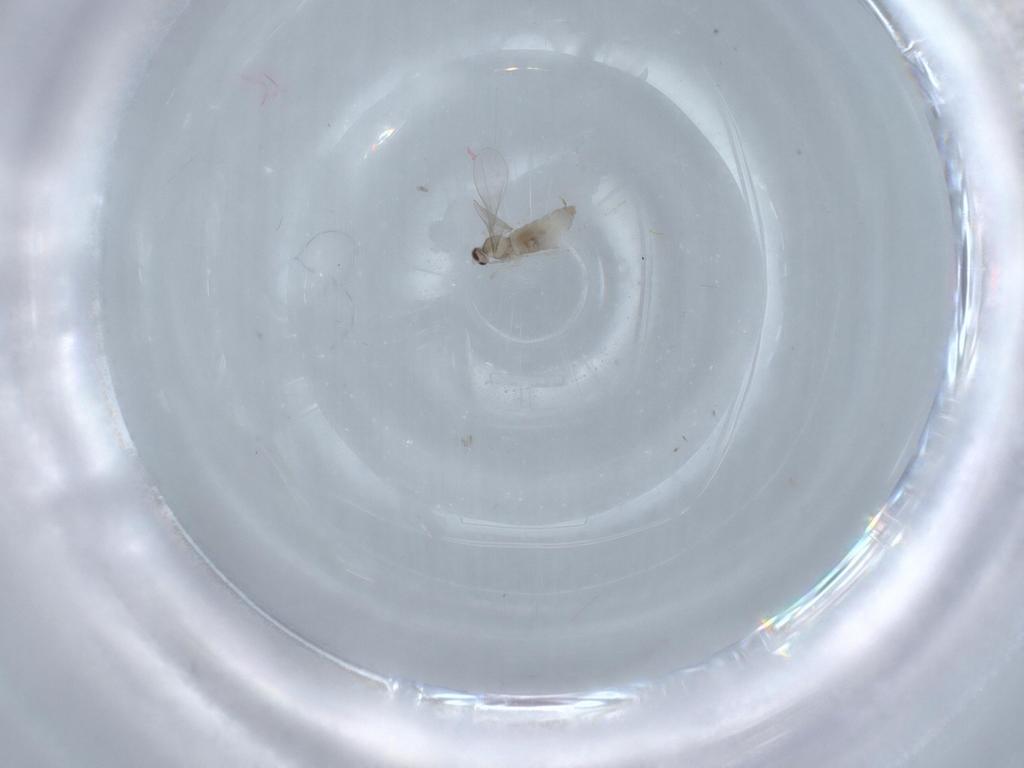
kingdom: Animalia
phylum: Arthropoda
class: Insecta
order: Diptera
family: Cecidomyiidae
